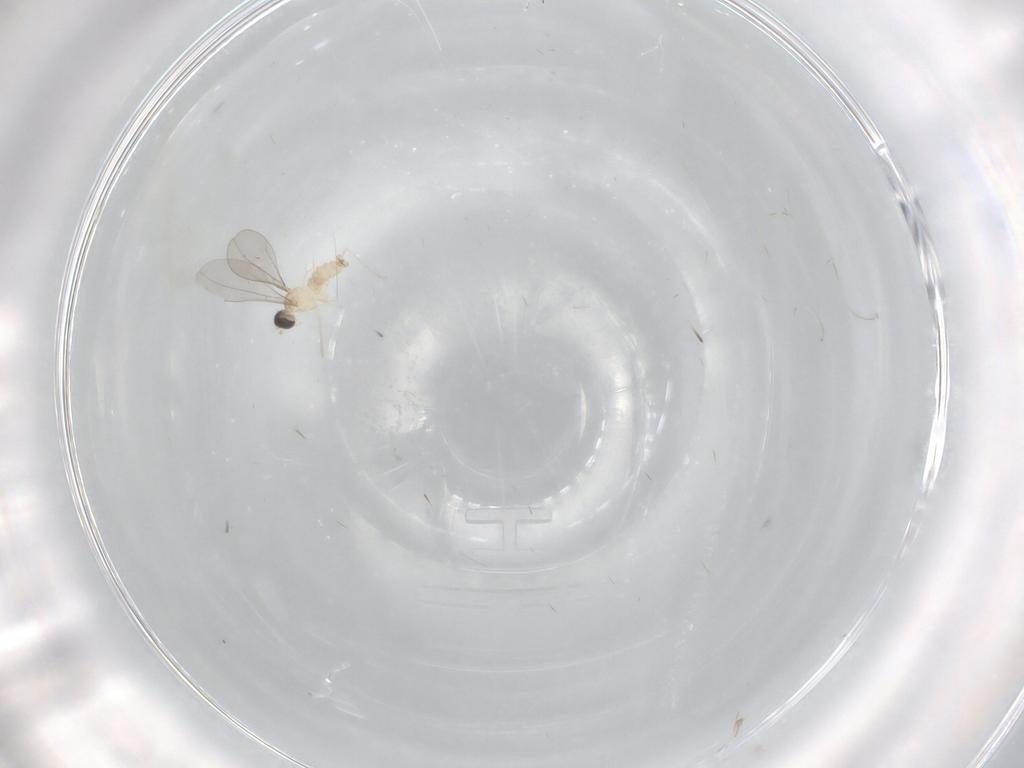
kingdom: Animalia
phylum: Arthropoda
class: Insecta
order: Diptera
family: Cecidomyiidae
